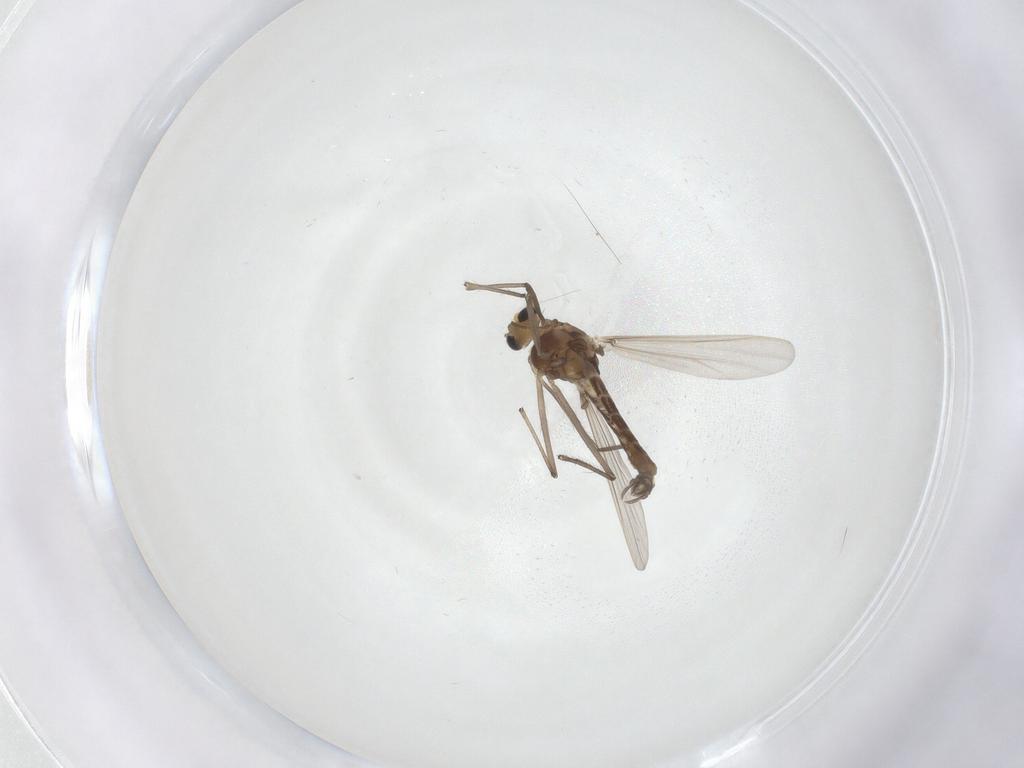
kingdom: Animalia
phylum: Arthropoda
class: Insecta
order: Diptera
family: Chironomidae
